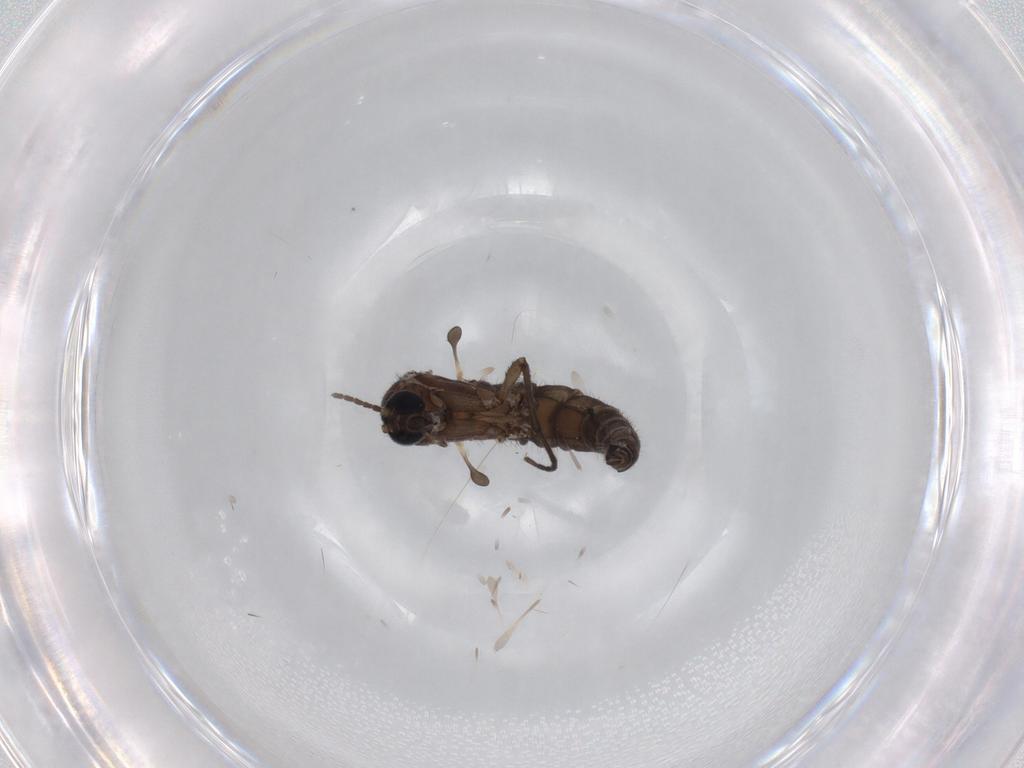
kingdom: Animalia
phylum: Arthropoda
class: Insecta
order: Diptera
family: Sciaridae
